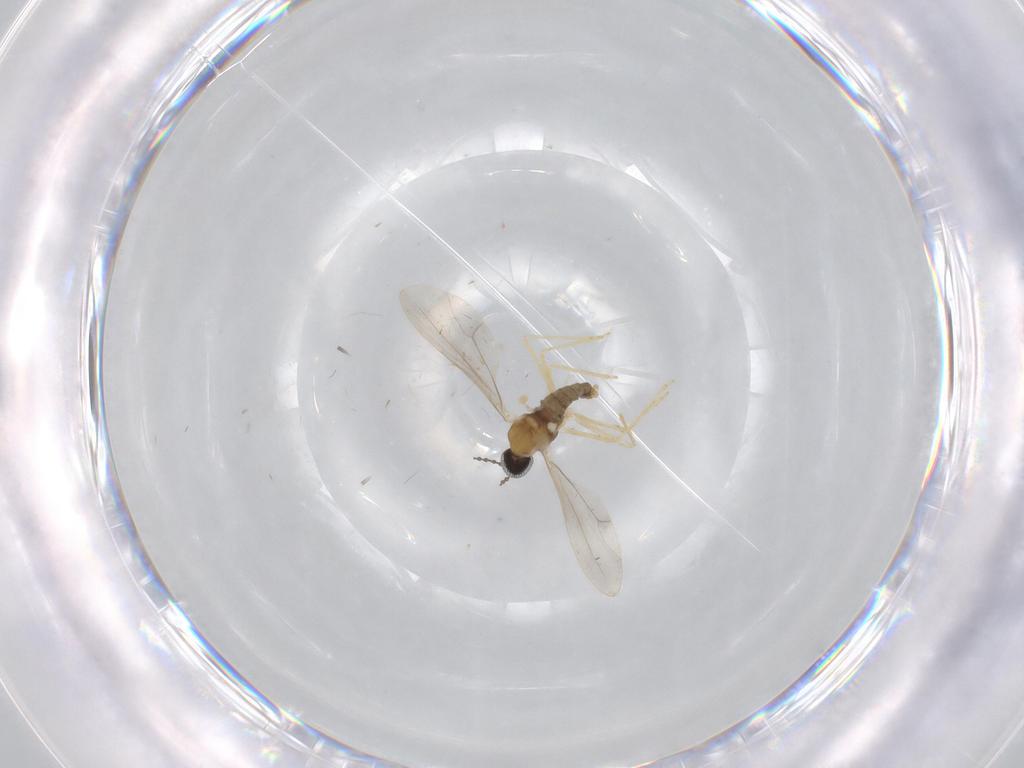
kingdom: Animalia
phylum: Arthropoda
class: Insecta
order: Diptera
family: Cecidomyiidae
